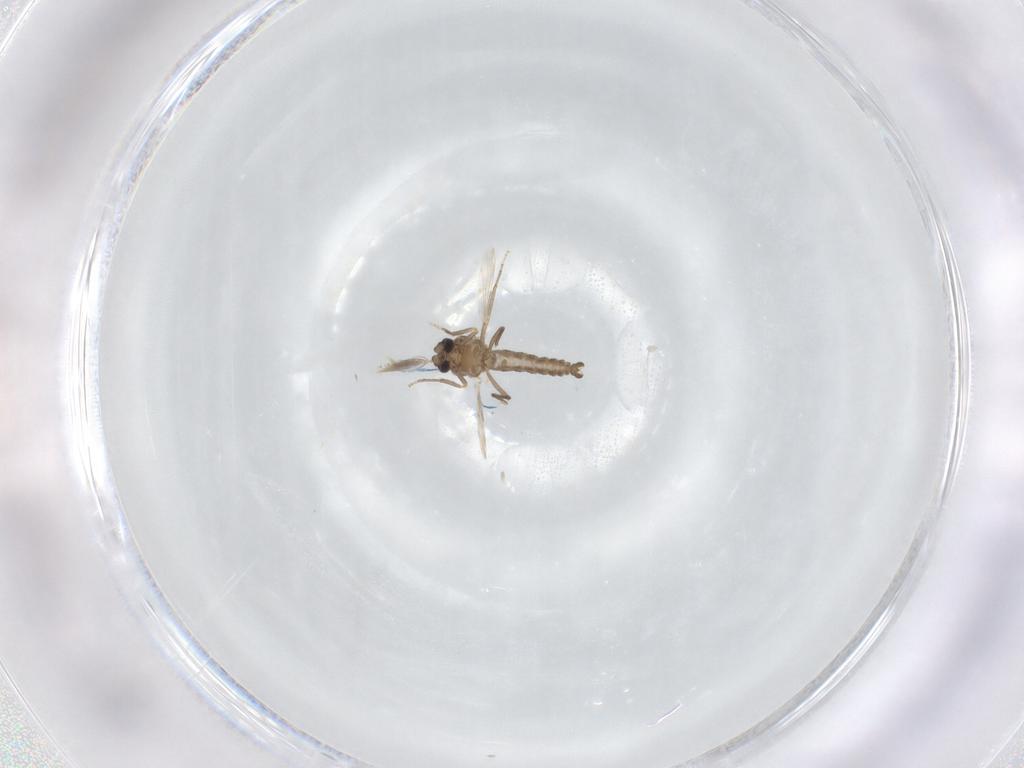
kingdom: Animalia
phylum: Arthropoda
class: Insecta
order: Diptera
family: Ceratopogonidae
